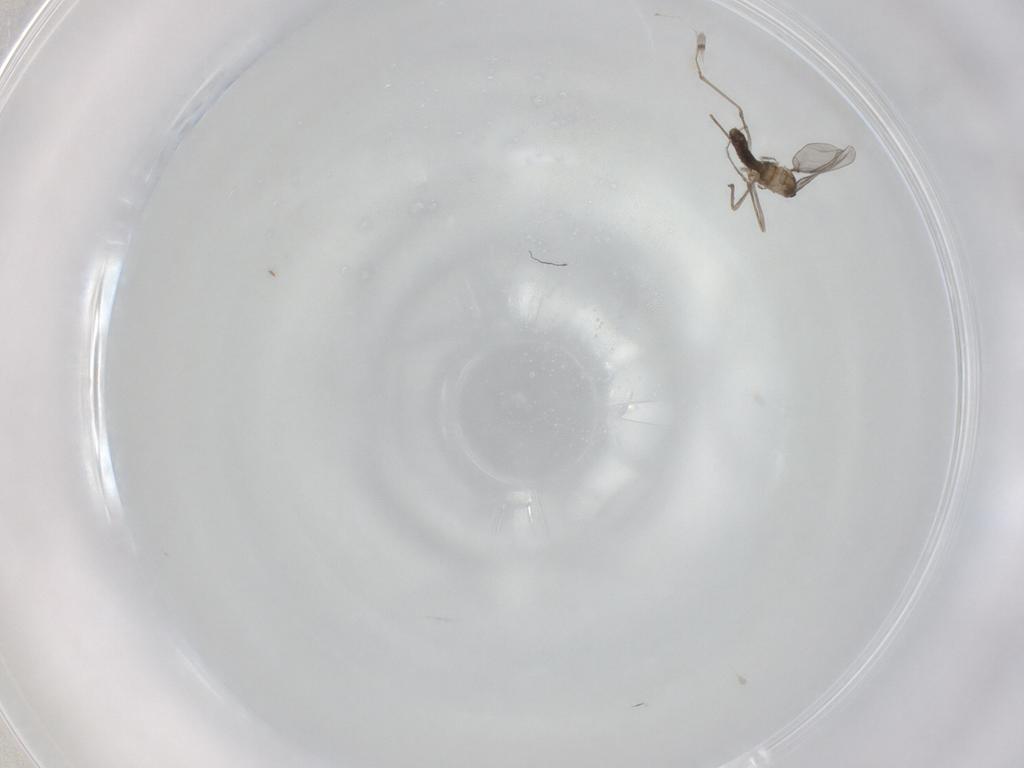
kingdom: Animalia
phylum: Arthropoda
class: Insecta
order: Diptera
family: Cecidomyiidae
